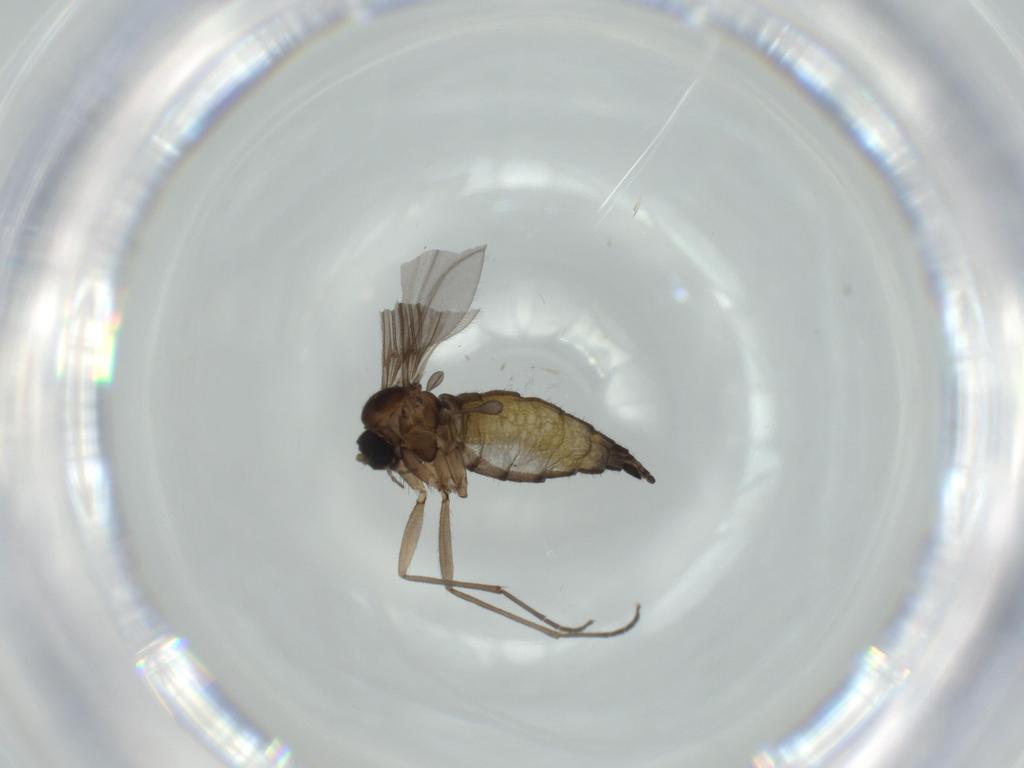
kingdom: Animalia
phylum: Arthropoda
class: Insecta
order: Diptera
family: Sciaridae
